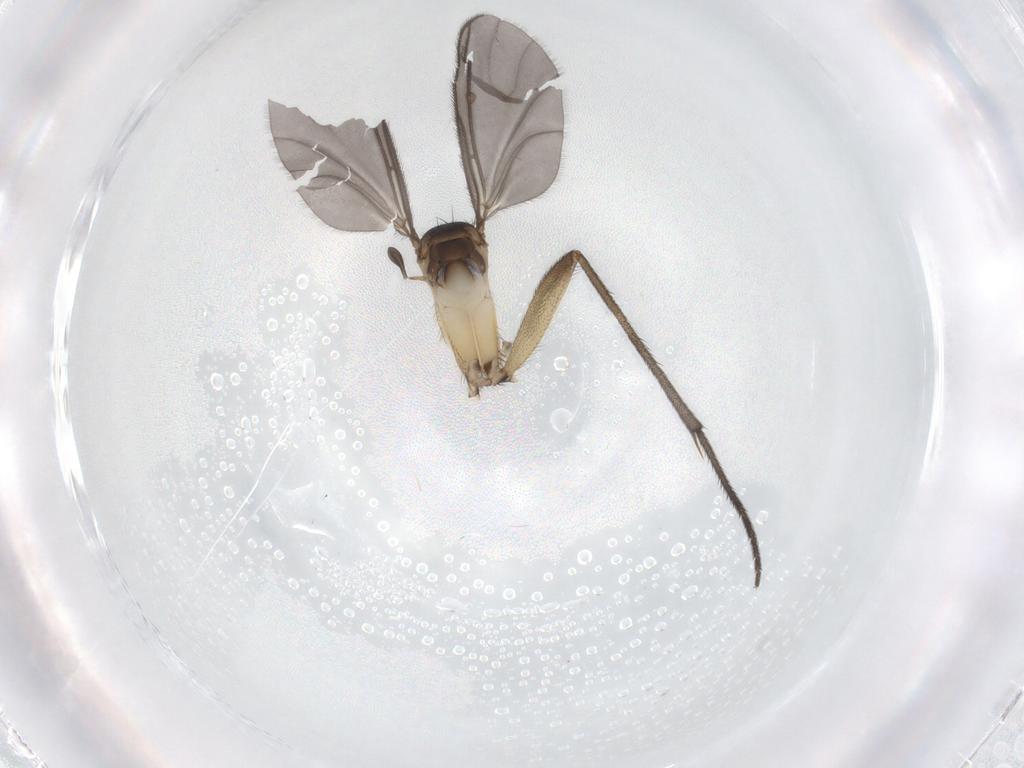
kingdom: Animalia
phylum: Arthropoda
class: Insecta
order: Diptera
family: Sciaridae
